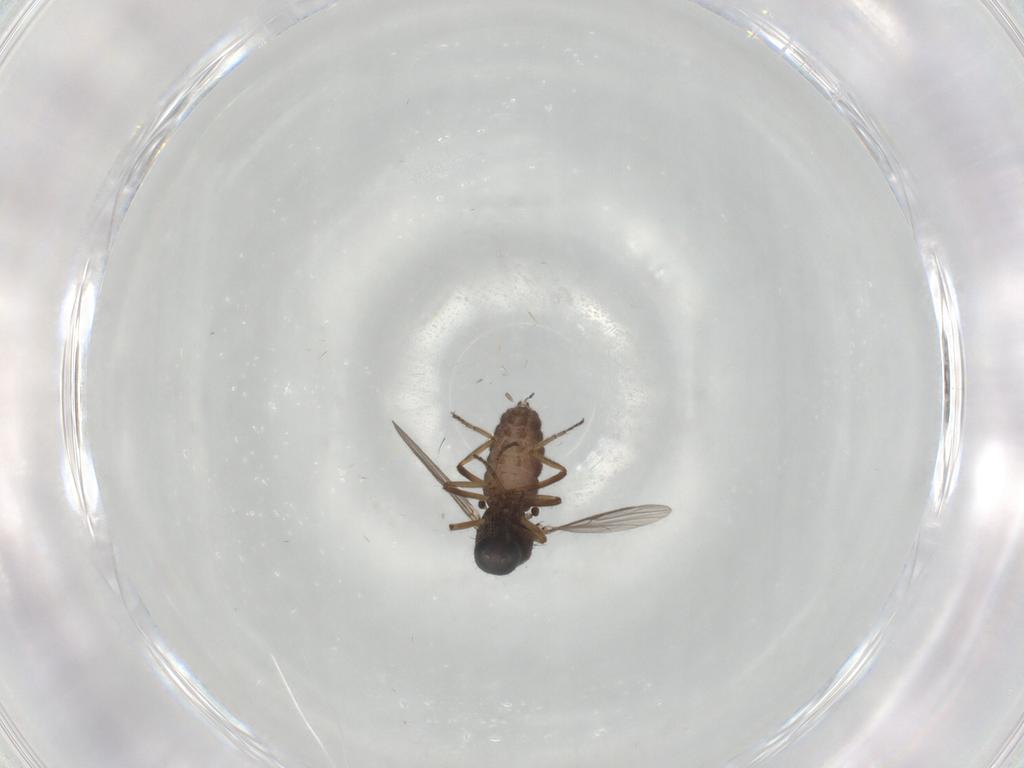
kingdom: Animalia
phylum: Arthropoda
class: Insecta
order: Diptera
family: Ceratopogonidae
